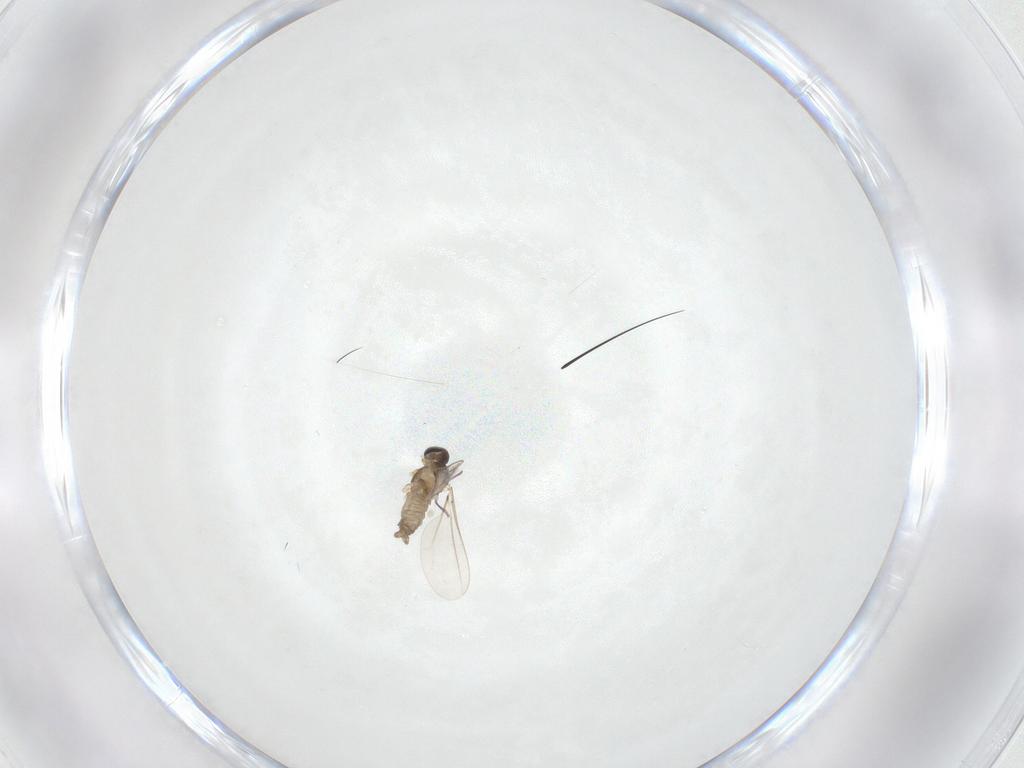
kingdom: Animalia
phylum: Arthropoda
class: Insecta
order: Diptera
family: Cecidomyiidae
